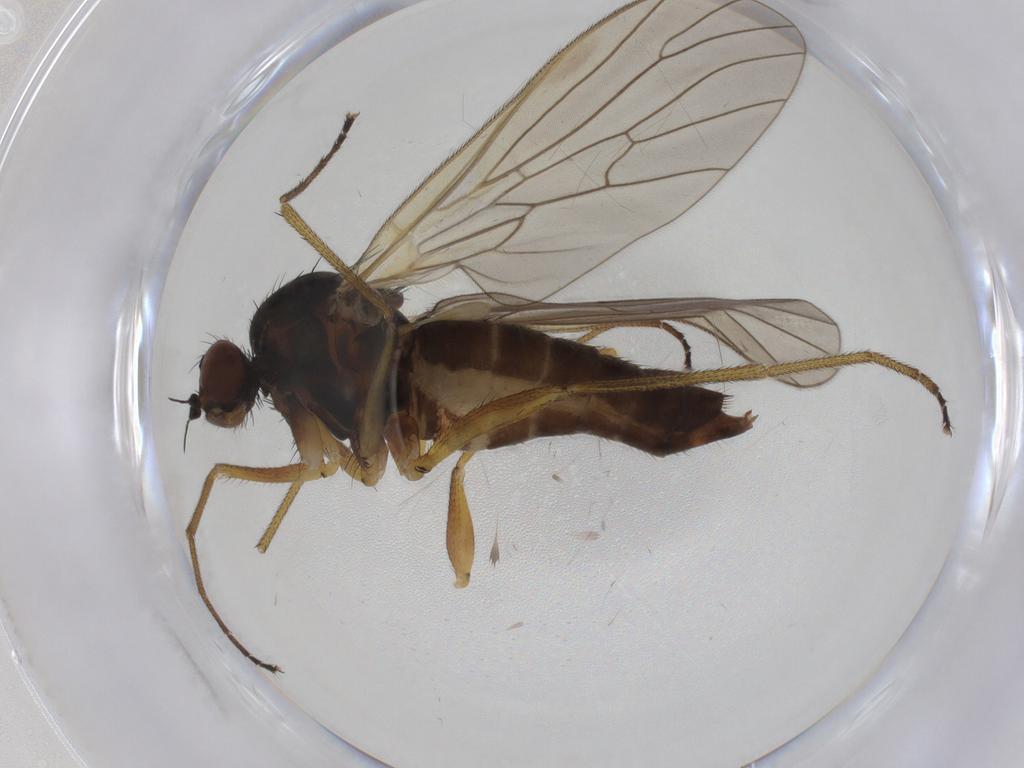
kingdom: Animalia
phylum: Arthropoda
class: Insecta
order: Diptera
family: Brachystomatidae
